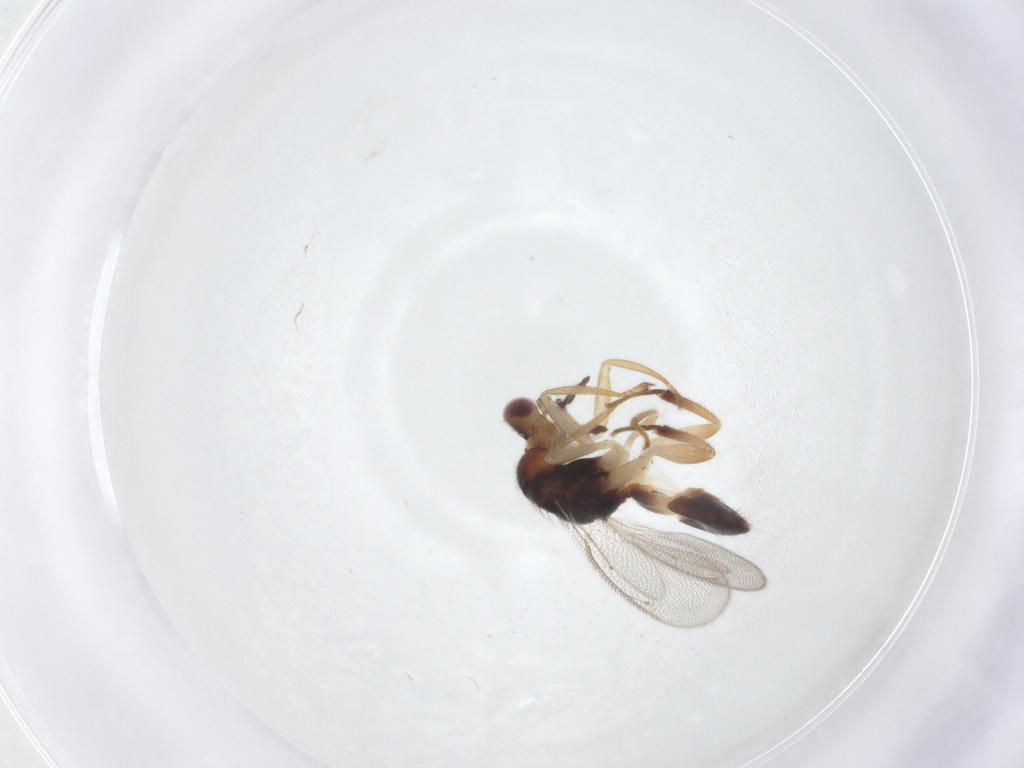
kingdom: Animalia
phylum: Arthropoda
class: Insecta
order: Hymenoptera
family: Eulophidae
